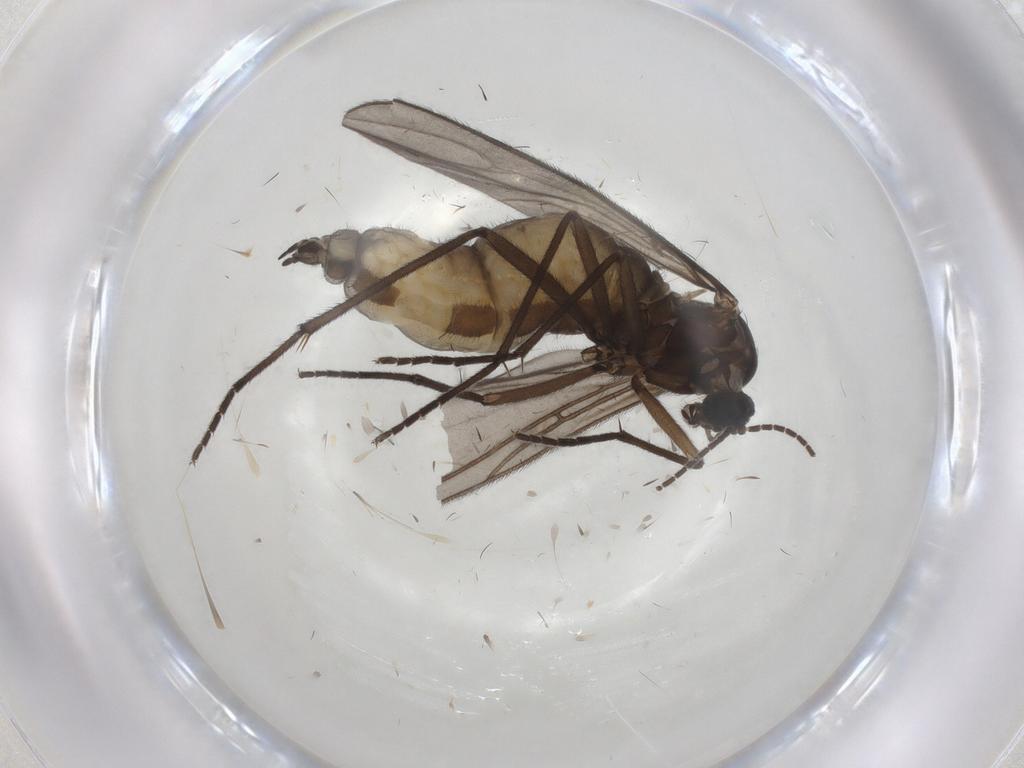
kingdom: Animalia
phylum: Arthropoda
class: Insecta
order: Diptera
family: Sciaridae
